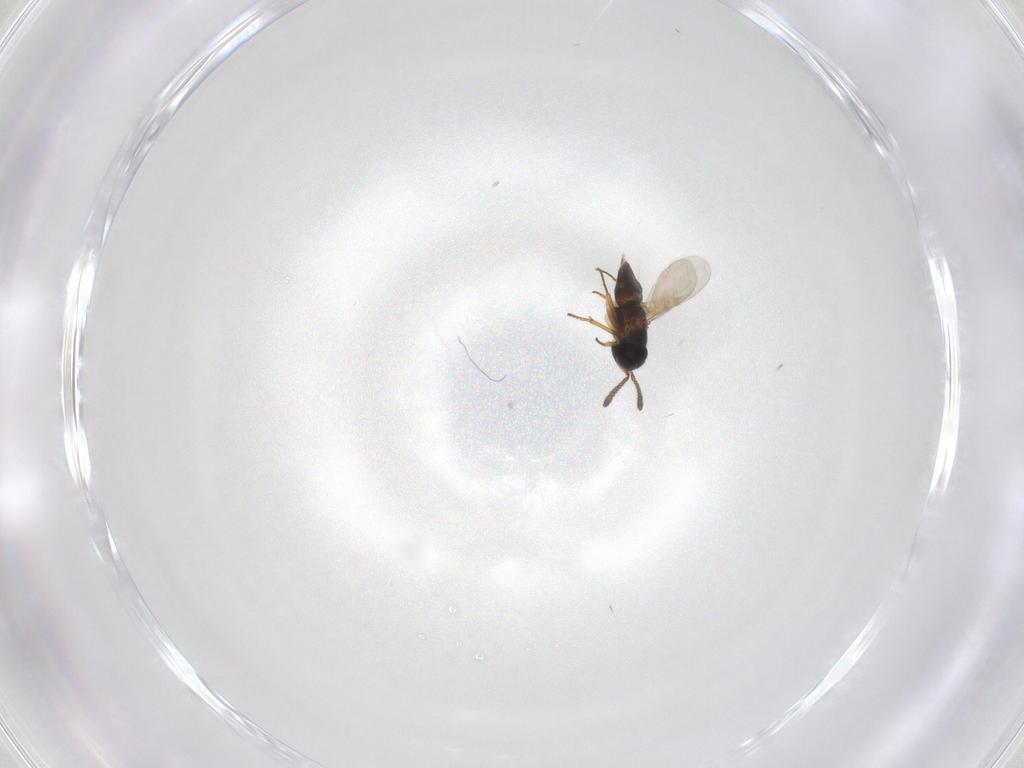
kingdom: Animalia
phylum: Arthropoda
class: Insecta
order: Hymenoptera
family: Encyrtidae
